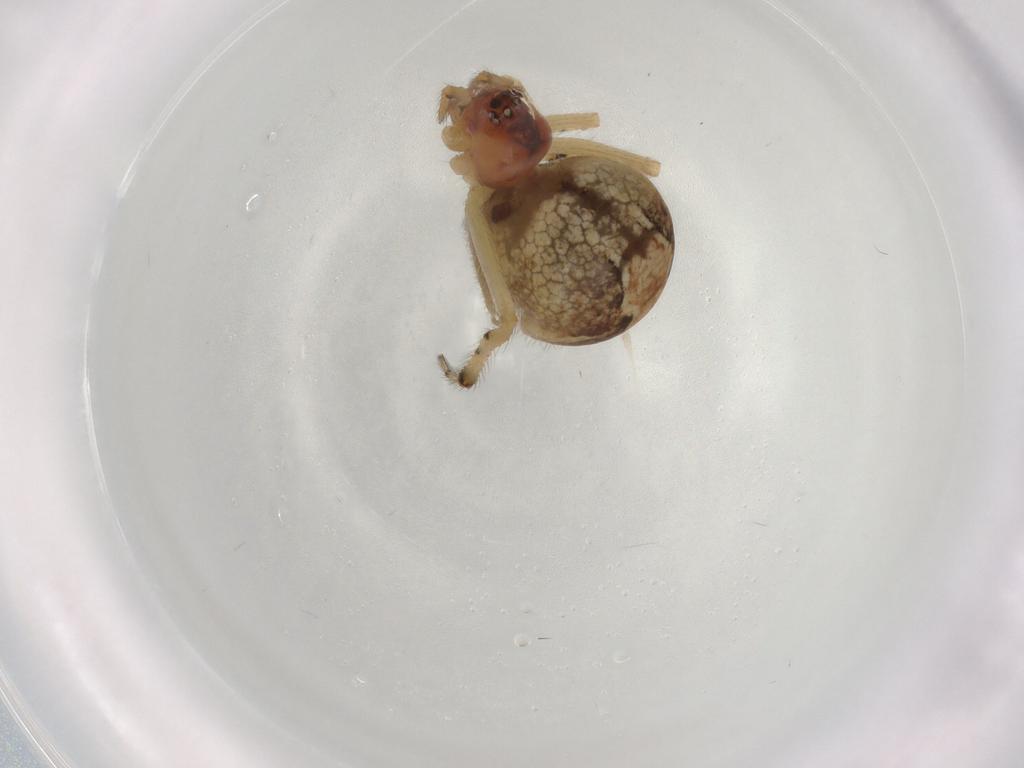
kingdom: Animalia
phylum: Arthropoda
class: Arachnida
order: Araneae
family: Theridiidae
